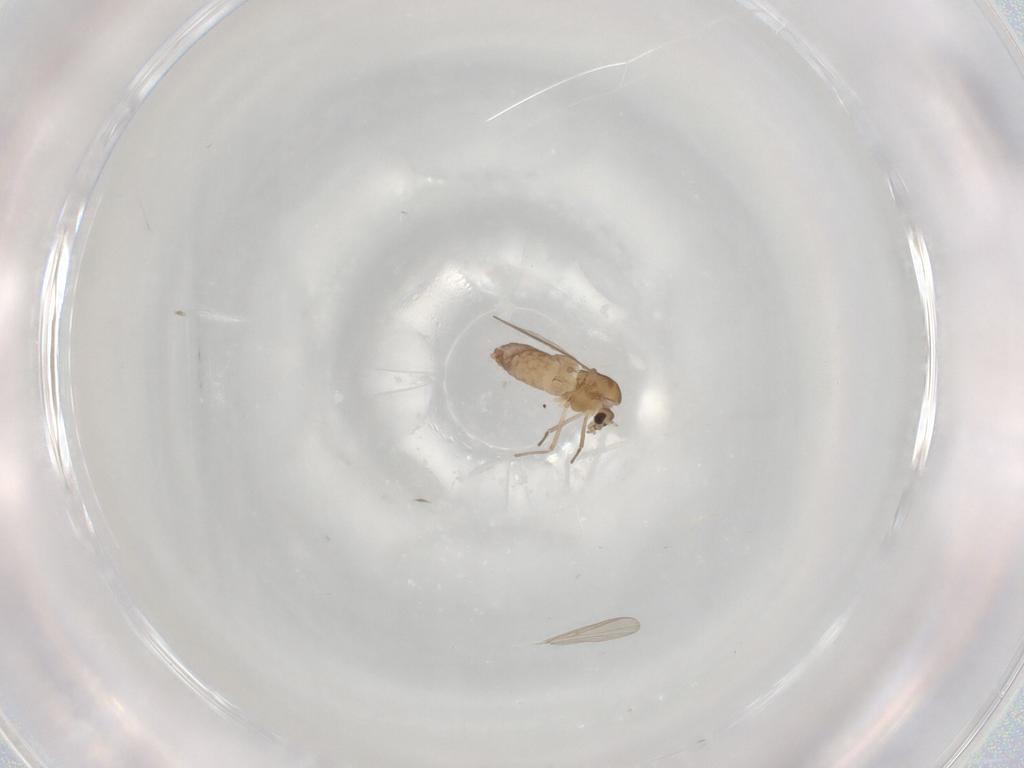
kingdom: Animalia
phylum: Arthropoda
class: Insecta
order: Diptera
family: Chironomidae
